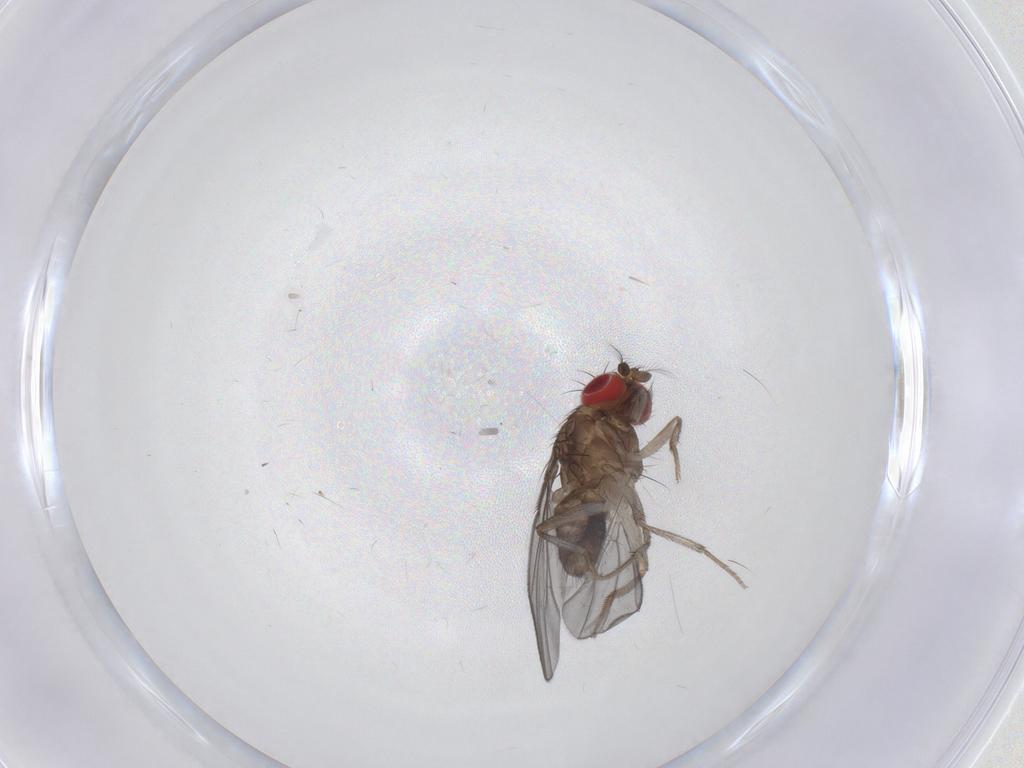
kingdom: Animalia
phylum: Arthropoda
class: Insecta
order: Diptera
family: Drosophilidae
